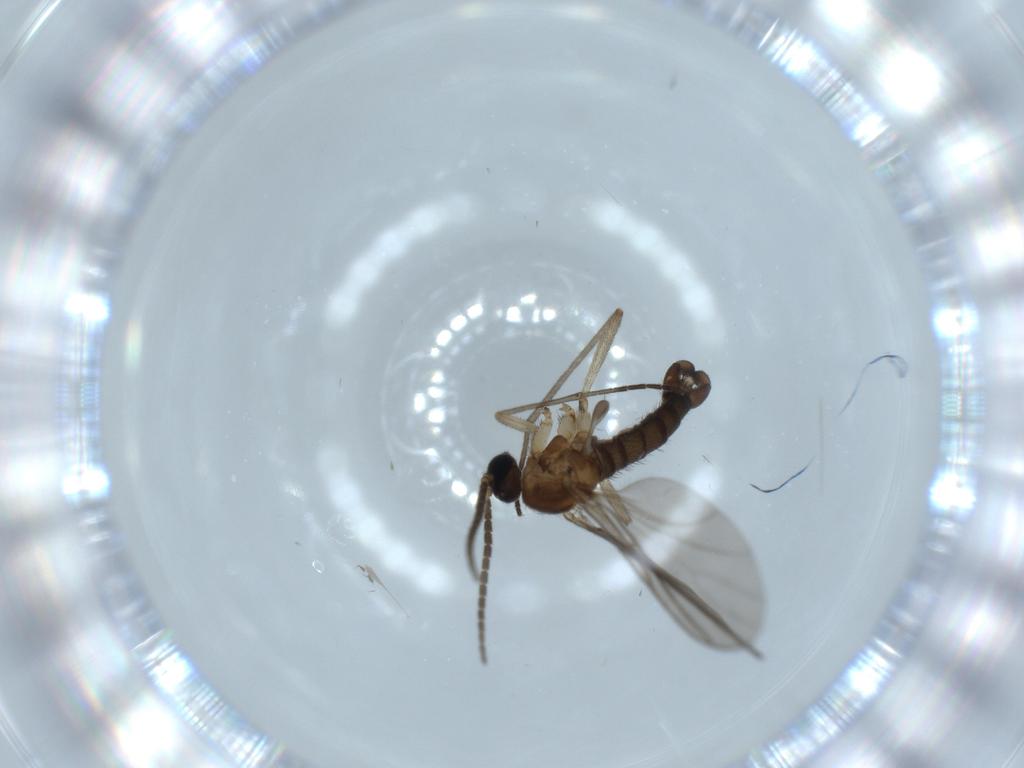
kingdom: Animalia
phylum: Arthropoda
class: Insecta
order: Diptera
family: Sciaridae
